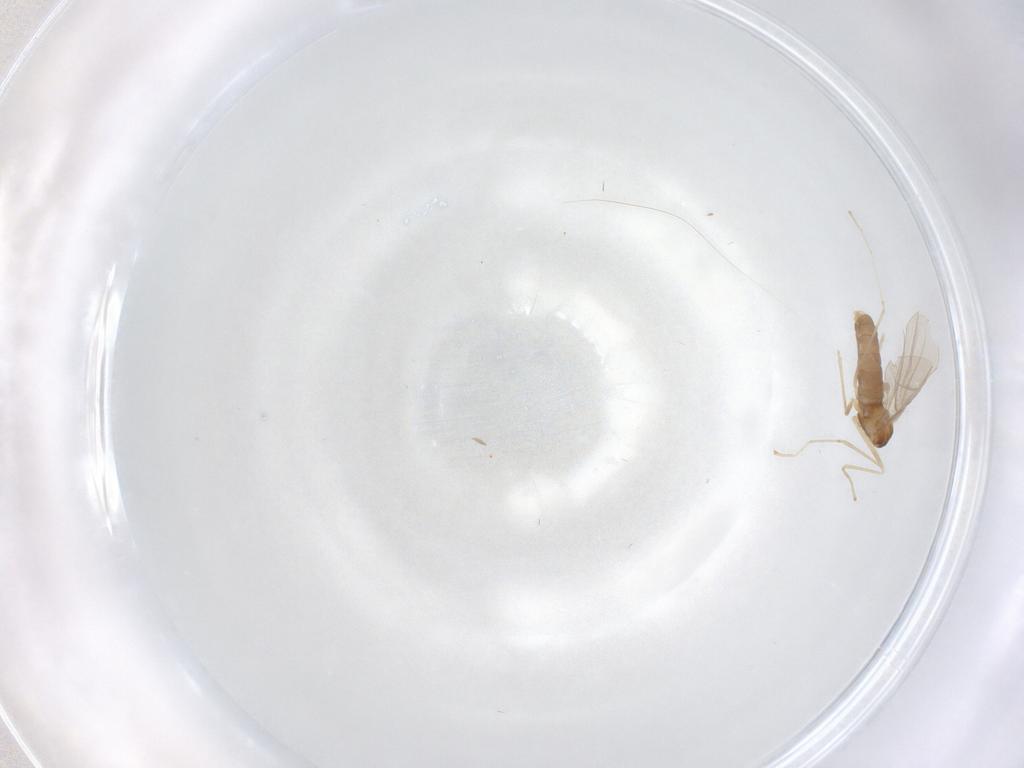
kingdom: Animalia
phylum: Arthropoda
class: Insecta
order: Diptera
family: Cecidomyiidae
